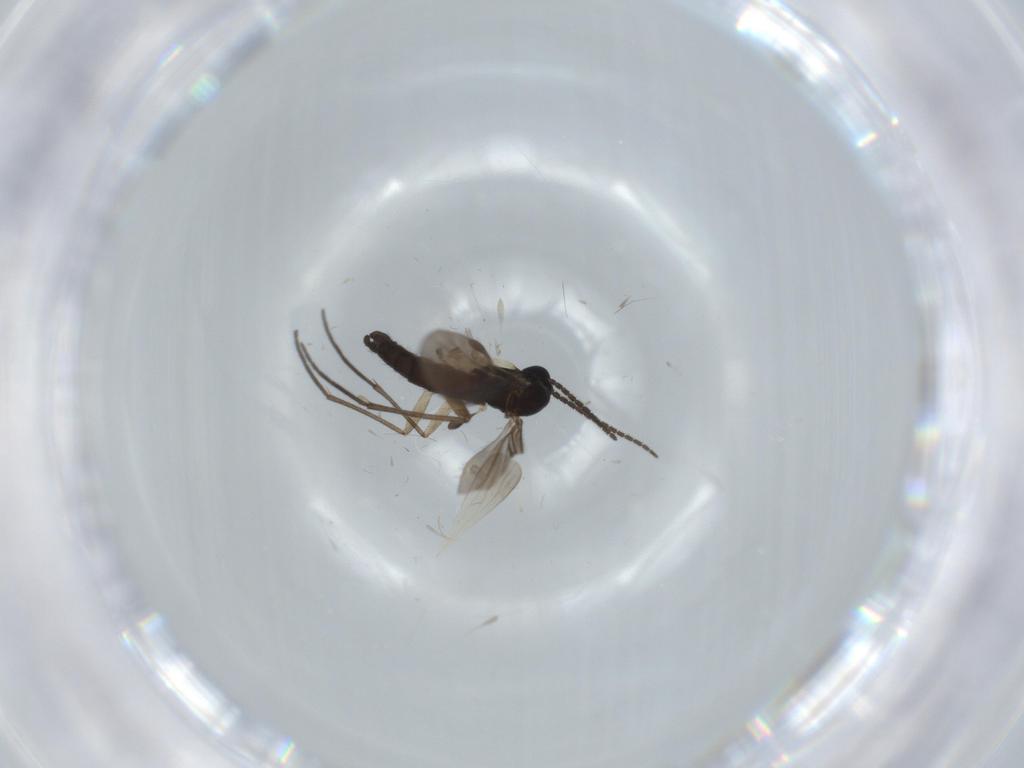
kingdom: Animalia
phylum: Arthropoda
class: Insecta
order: Diptera
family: Sciaridae
